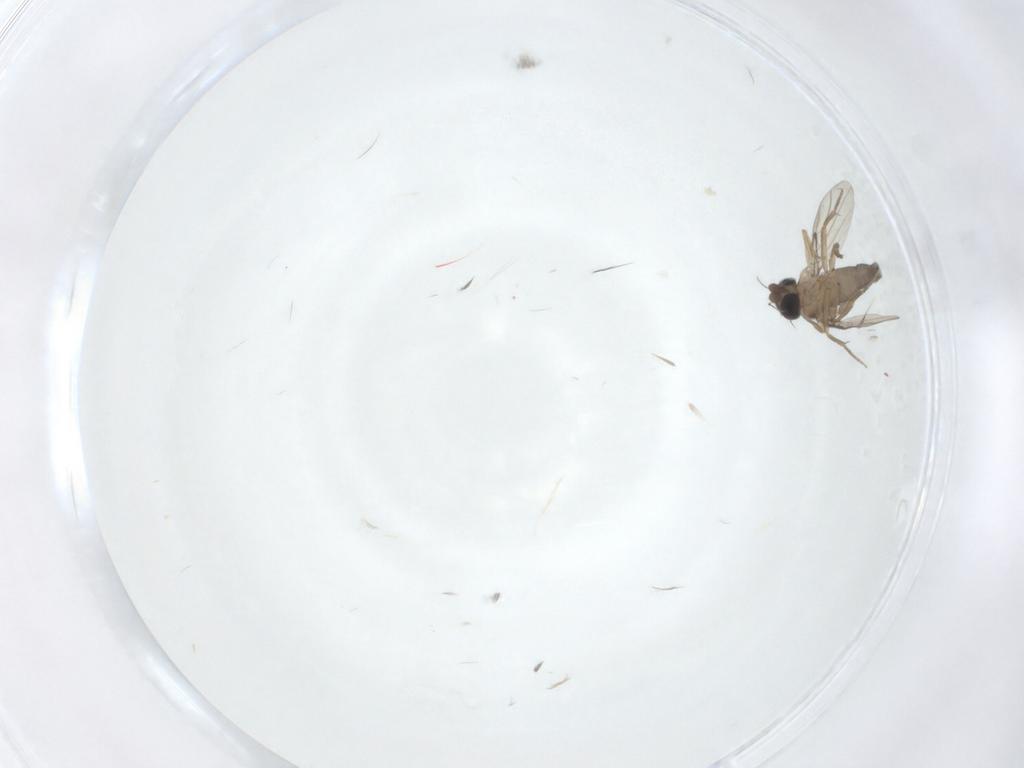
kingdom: Animalia
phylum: Arthropoda
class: Insecta
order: Diptera
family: Phoridae
